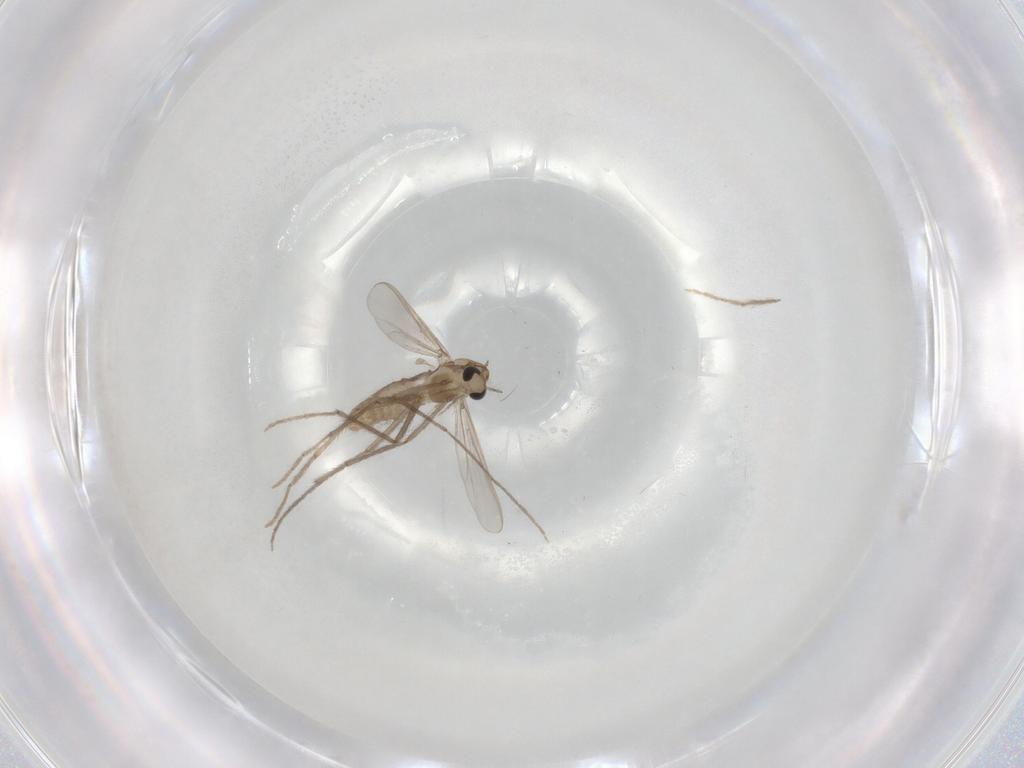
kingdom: Animalia
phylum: Arthropoda
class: Insecta
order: Diptera
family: Chironomidae
